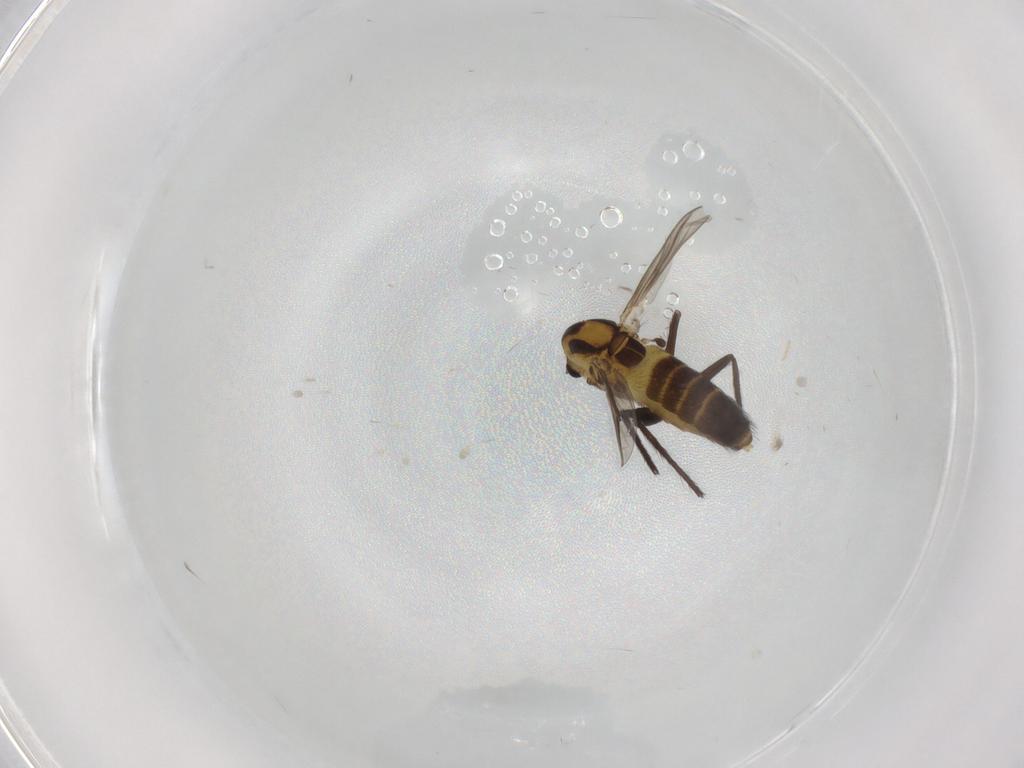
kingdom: Animalia
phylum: Arthropoda
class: Insecta
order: Diptera
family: Chironomidae
